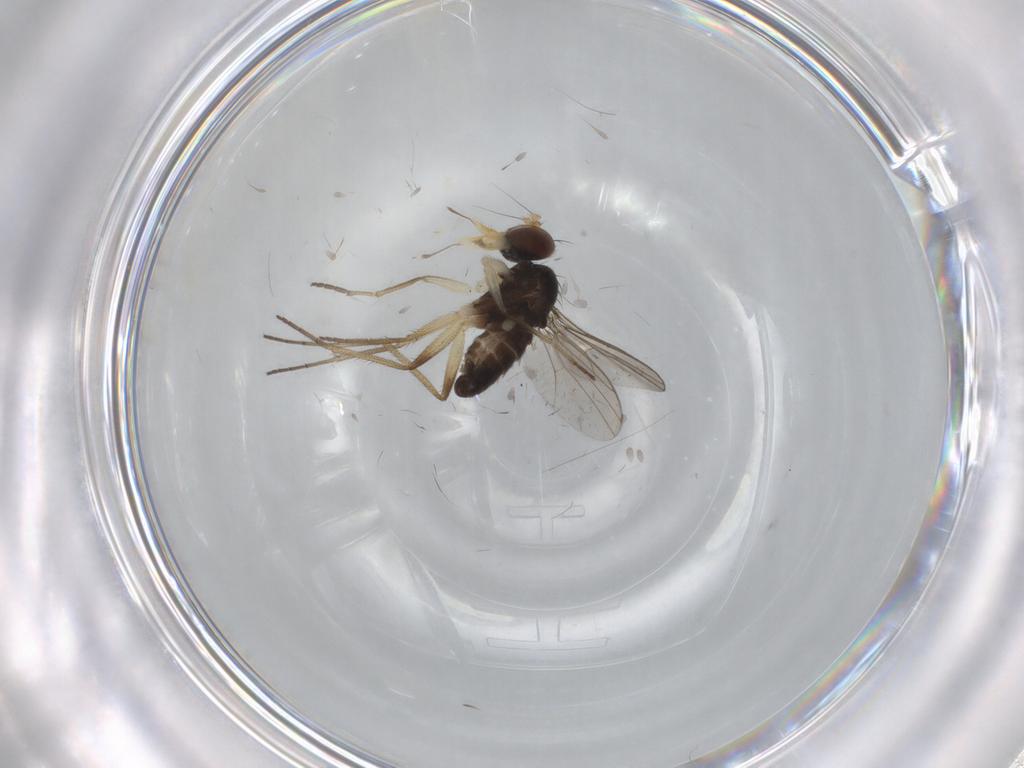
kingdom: Animalia
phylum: Arthropoda
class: Insecta
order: Diptera
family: Dolichopodidae
